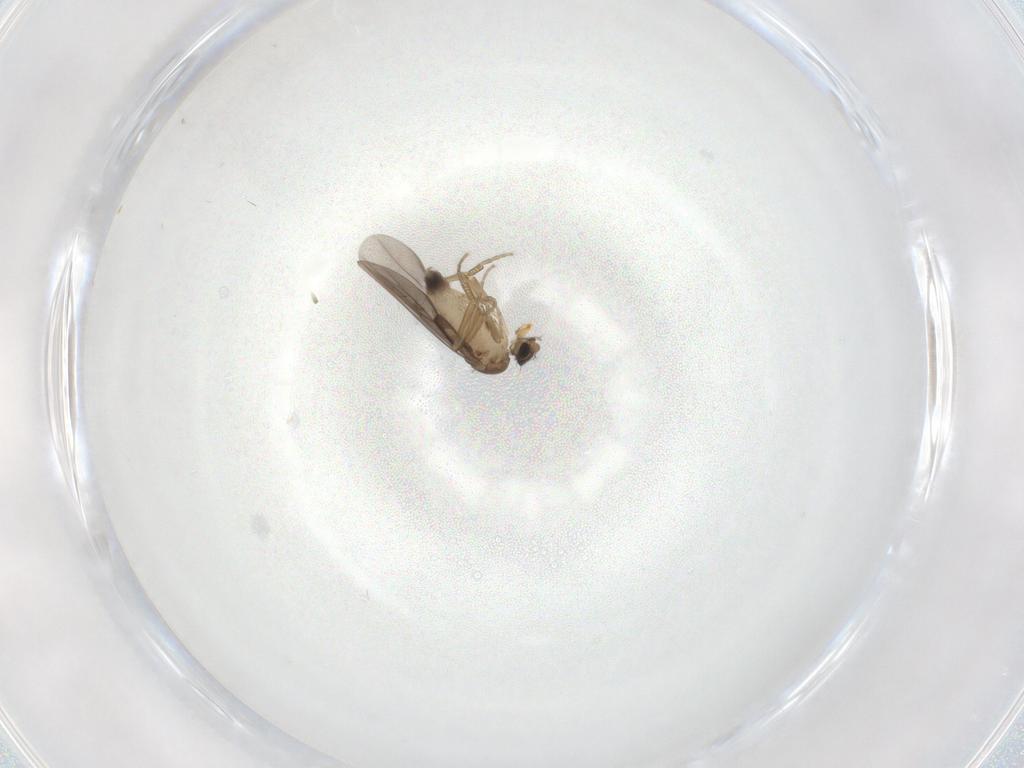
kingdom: Animalia
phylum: Arthropoda
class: Insecta
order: Diptera
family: Phoridae
